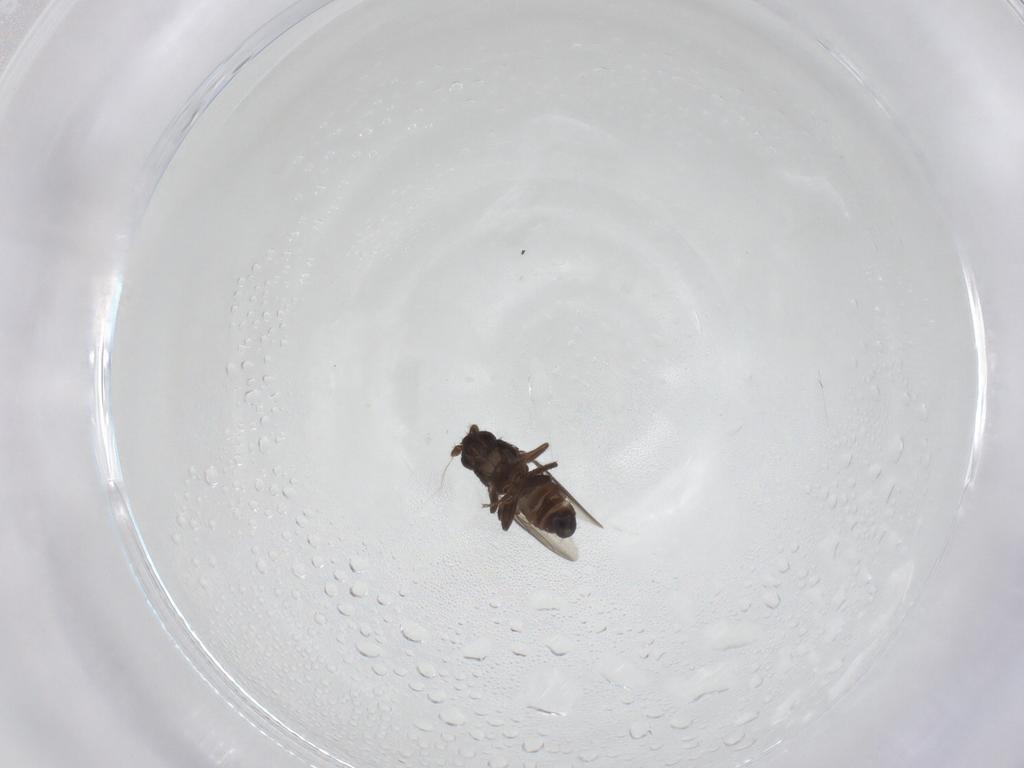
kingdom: Animalia
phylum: Arthropoda
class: Insecta
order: Diptera
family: Sphaeroceridae
